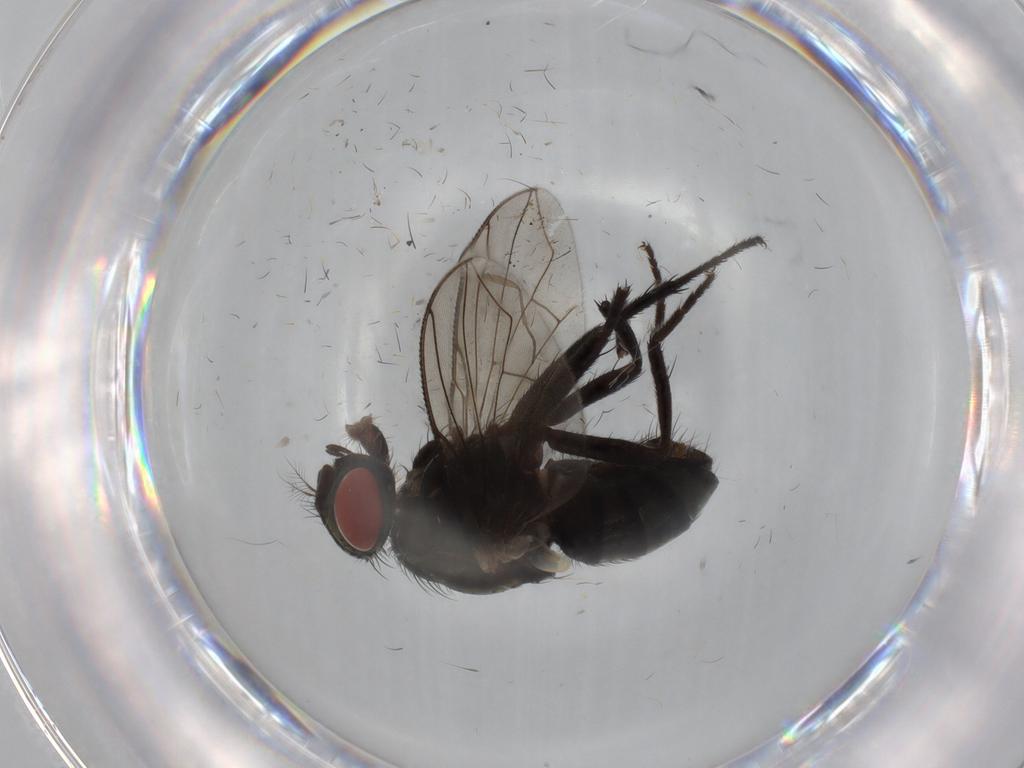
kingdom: Animalia
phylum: Arthropoda
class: Insecta
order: Diptera
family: Sarcophagidae
